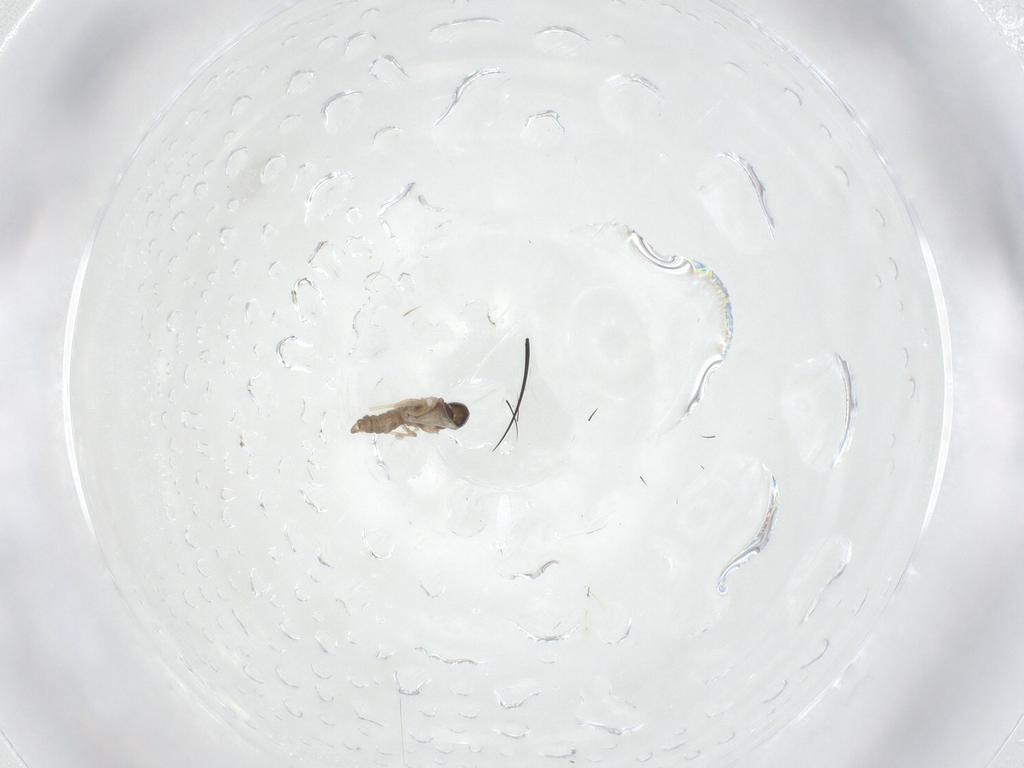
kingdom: Animalia
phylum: Arthropoda
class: Insecta
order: Diptera
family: Cecidomyiidae
